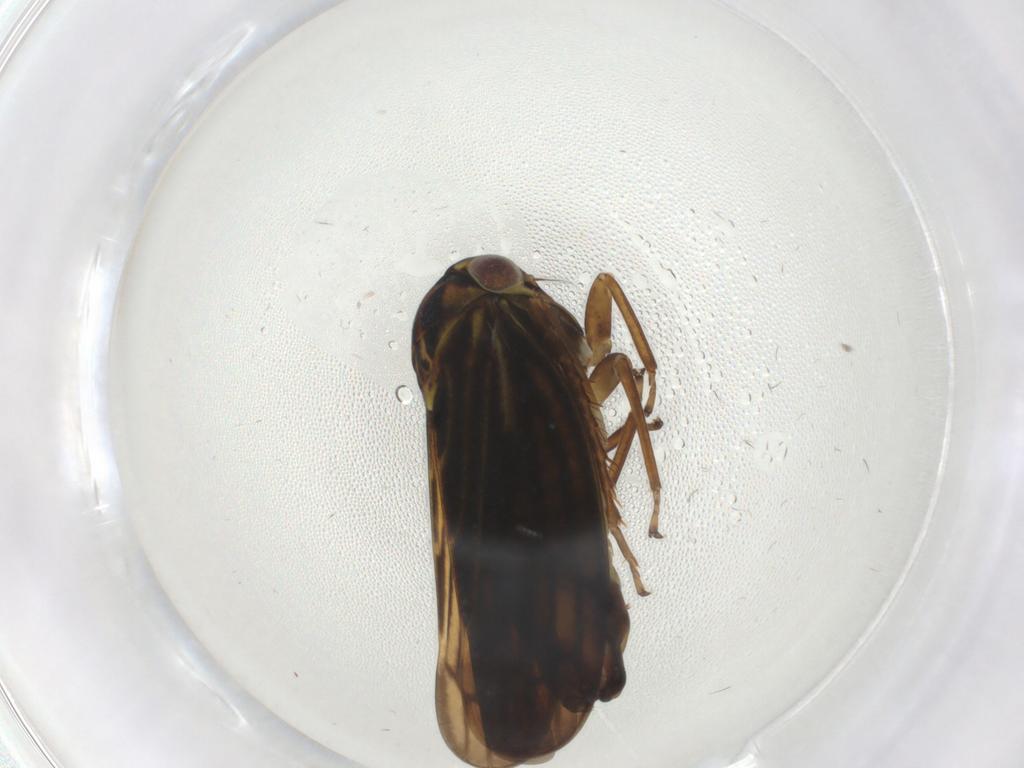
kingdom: Animalia
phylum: Arthropoda
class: Insecta
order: Hemiptera
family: Cicadellidae
